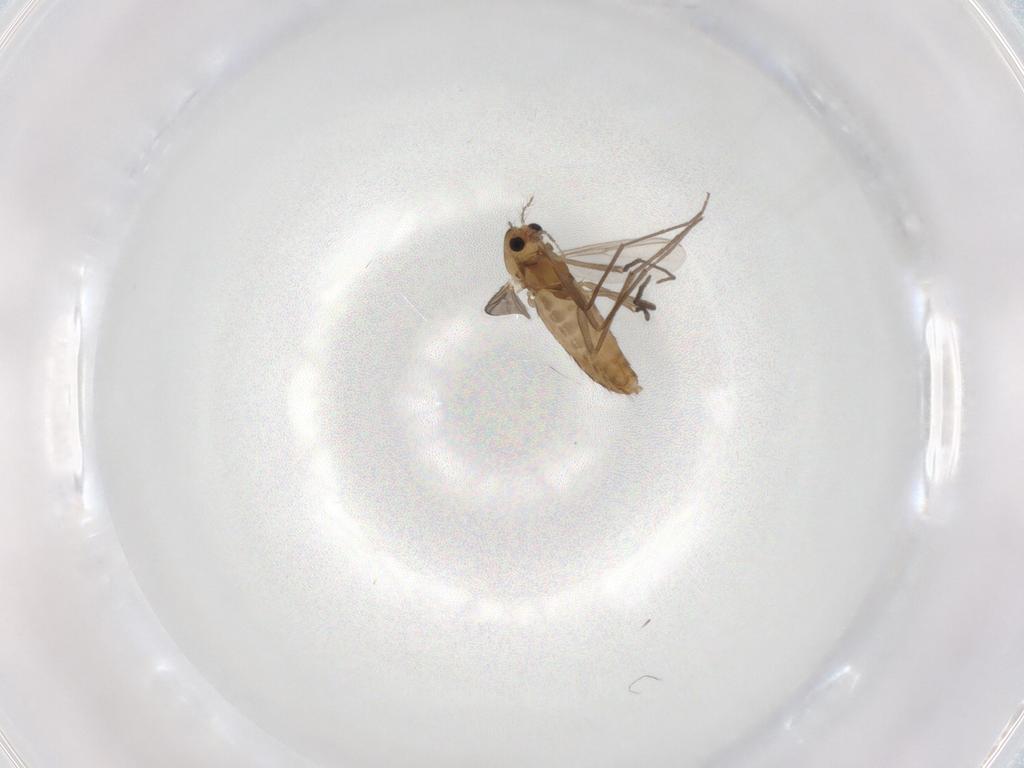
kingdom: Animalia
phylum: Arthropoda
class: Insecta
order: Diptera
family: Chironomidae
